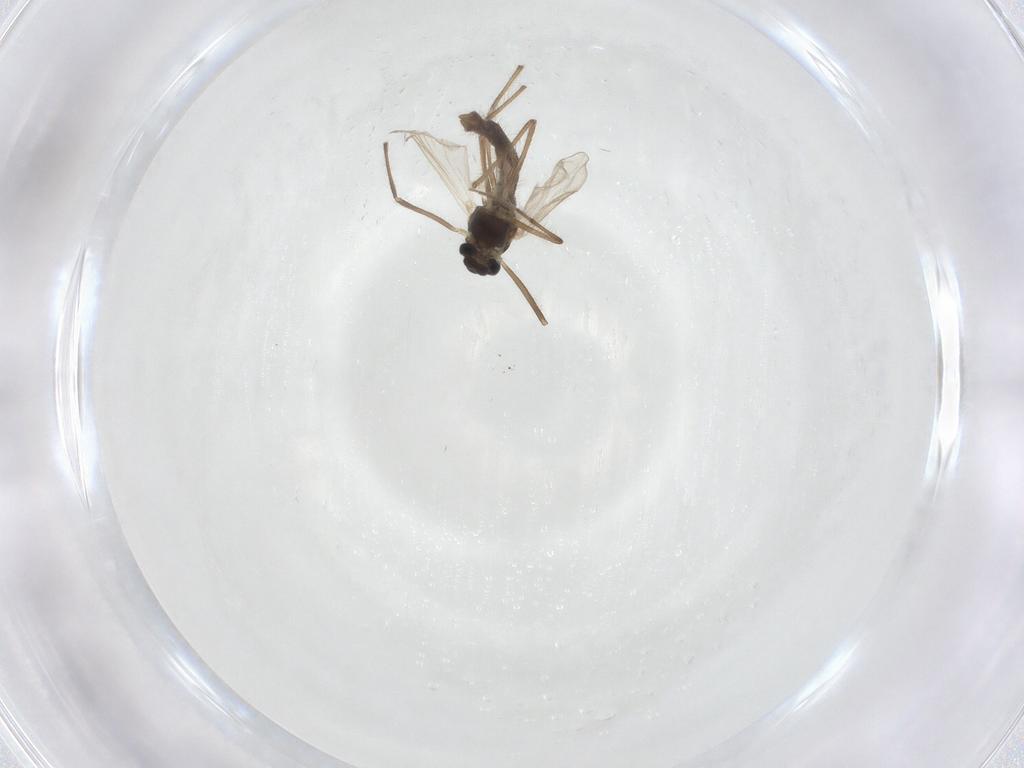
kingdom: Animalia
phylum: Arthropoda
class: Insecta
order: Diptera
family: Chironomidae
